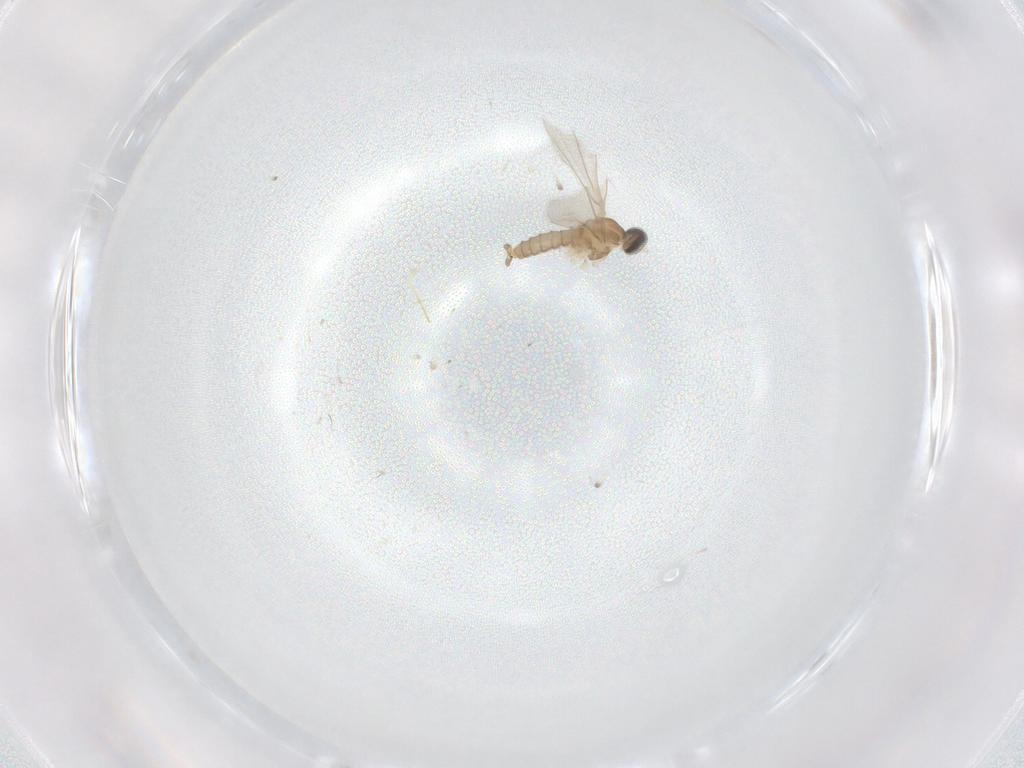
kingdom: Animalia
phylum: Arthropoda
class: Insecta
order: Diptera
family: Cecidomyiidae
